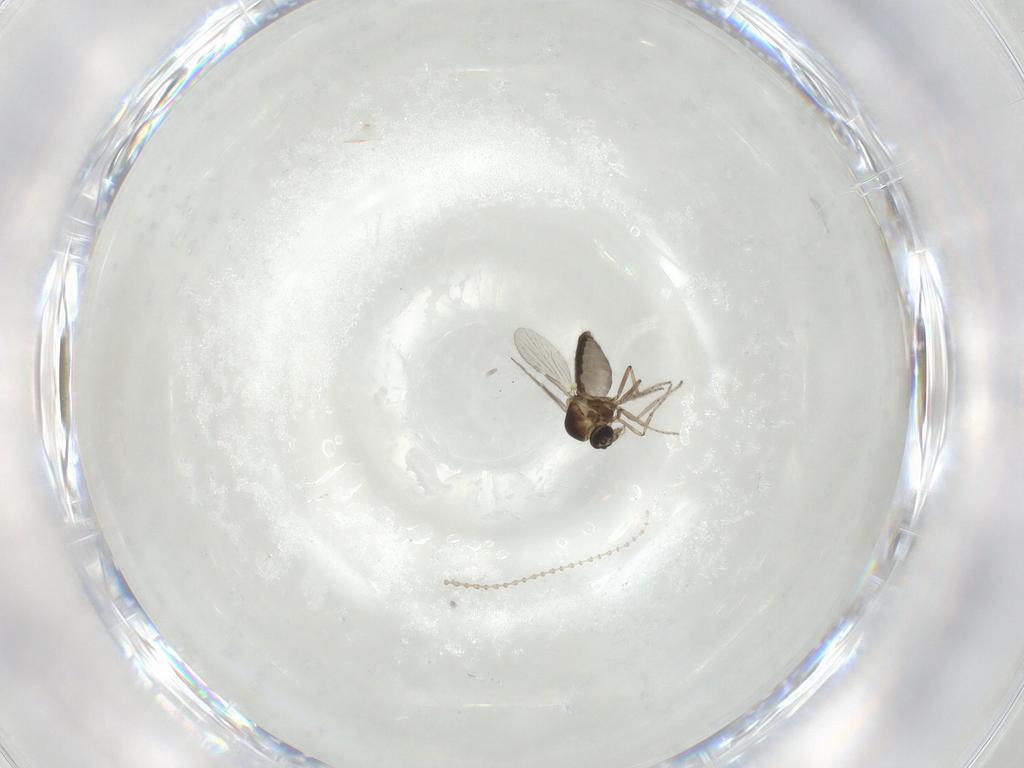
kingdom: Animalia
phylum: Arthropoda
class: Insecta
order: Diptera
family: Ceratopogonidae
